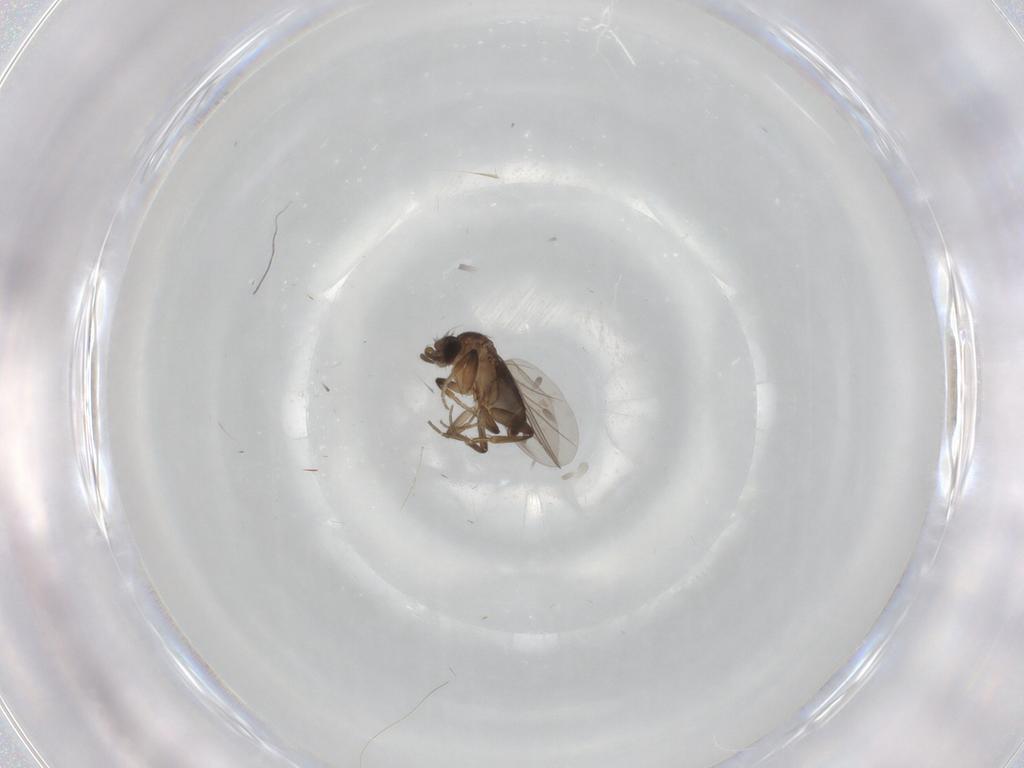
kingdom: Animalia
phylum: Arthropoda
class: Insecta
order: Diptera
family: Phoridae
